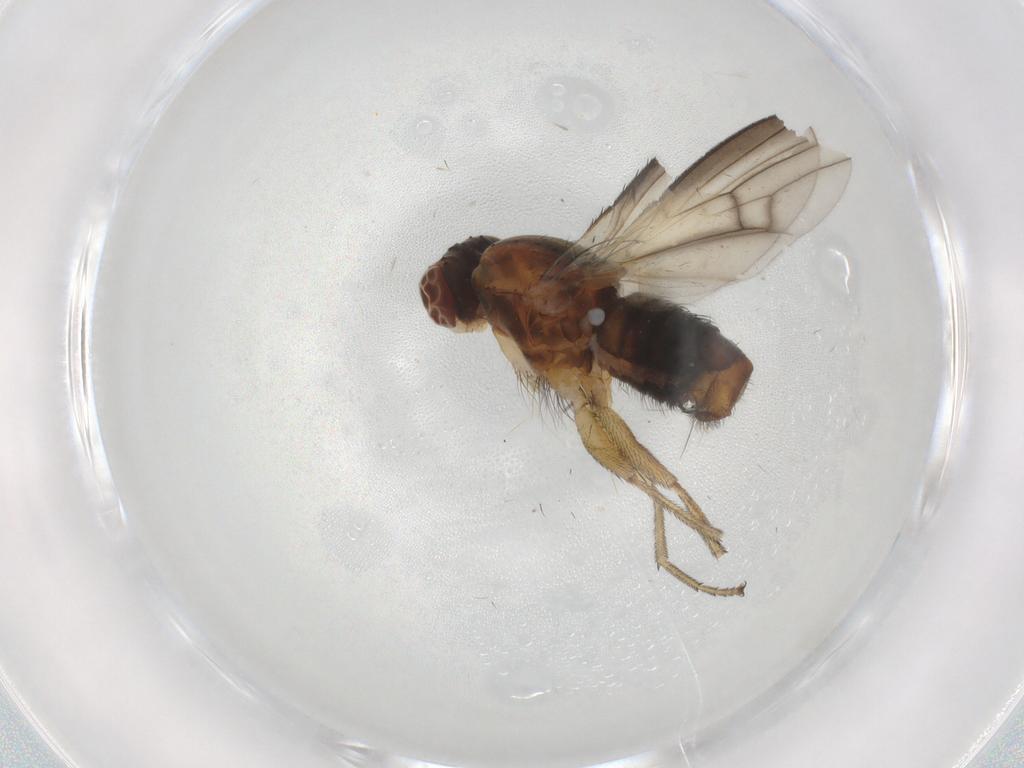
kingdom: Animalia
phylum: Arthropoda
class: Insecta
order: Diptera
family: Heleomyzidae
